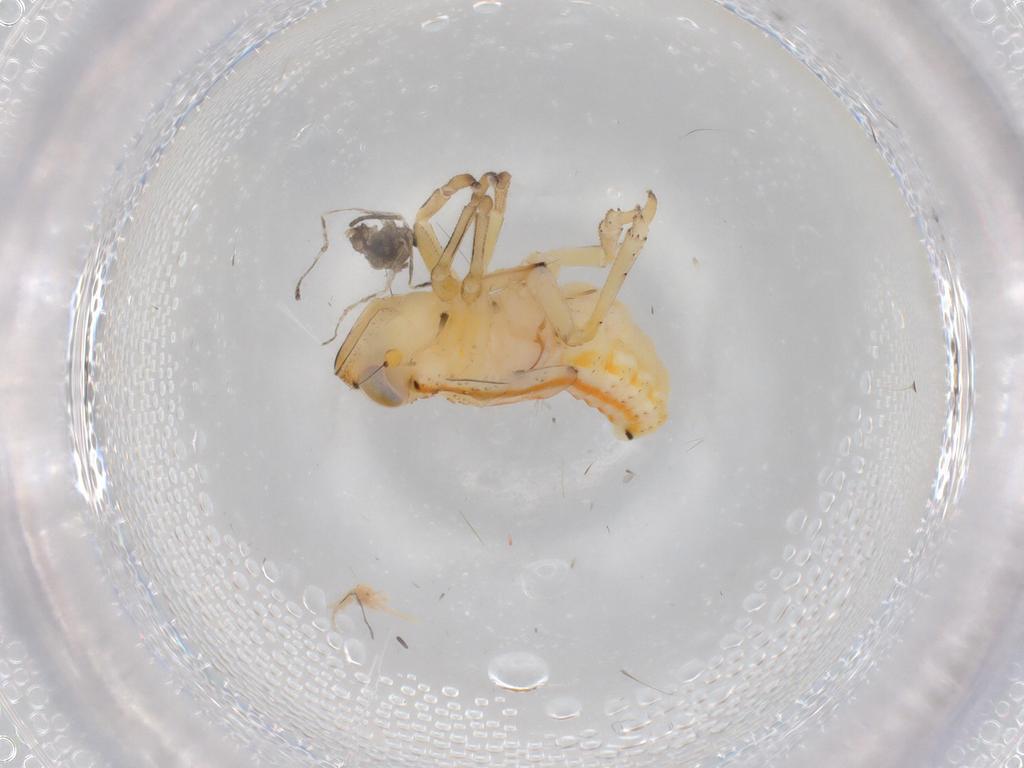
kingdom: Animalia
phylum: Arthropoda
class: Insecta
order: Hemiptera
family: Issidae
